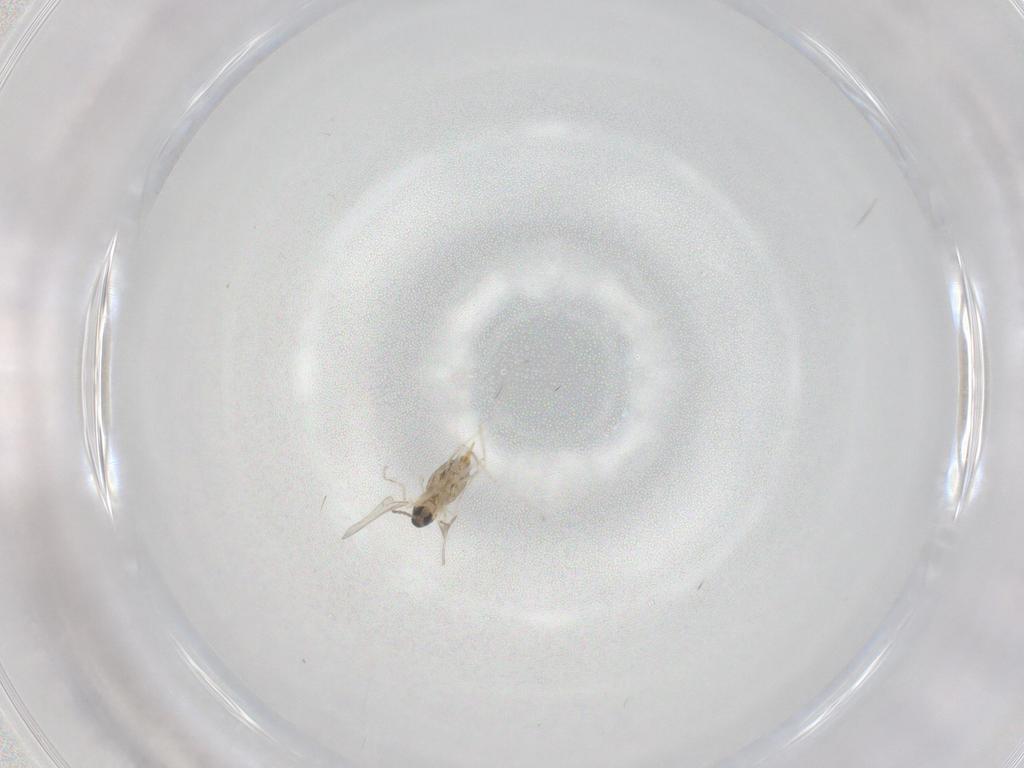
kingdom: Animalia
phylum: Arthropoda
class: Insecta
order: Diptera
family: Cecidomyiidae
